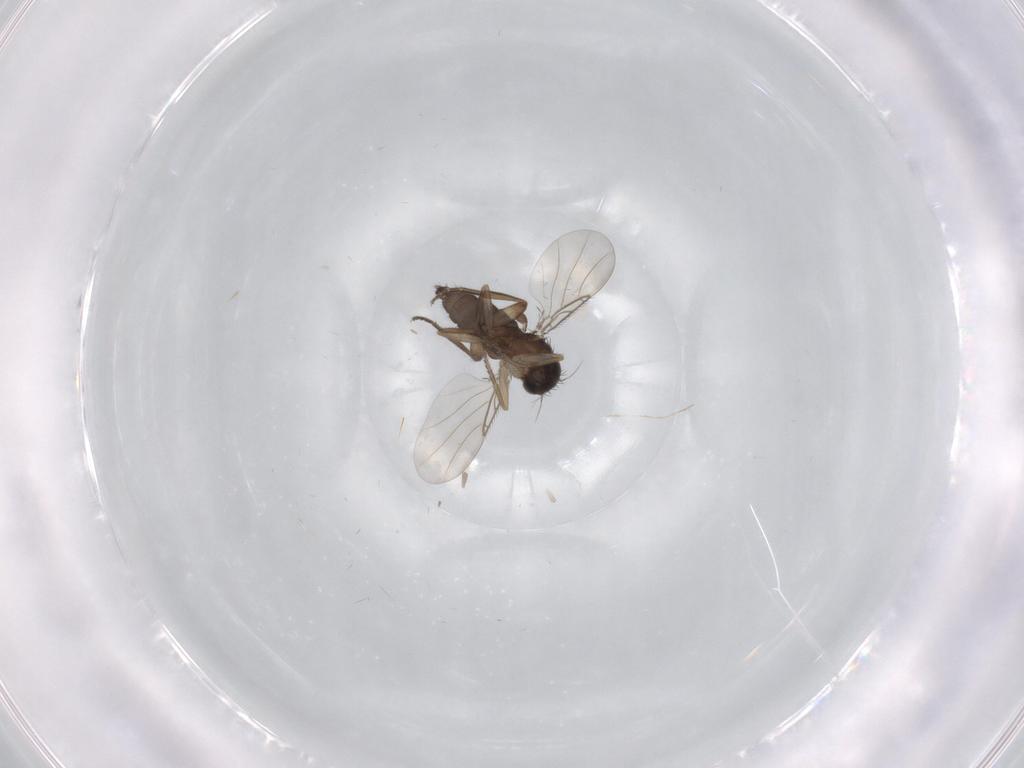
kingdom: Animalia
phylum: Arthropoda
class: Insecta
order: Diptera
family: Phoridae
